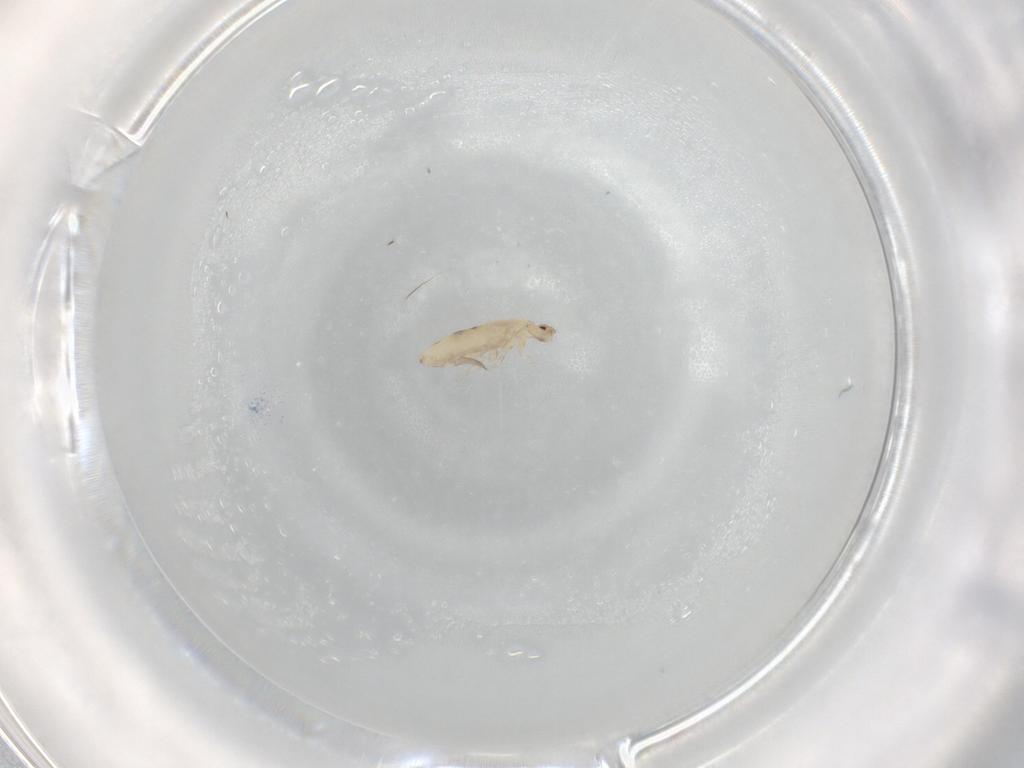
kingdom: Animalia
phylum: Arthropoda
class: Collembola
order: Entomobryomorpha
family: Entomobryidae
